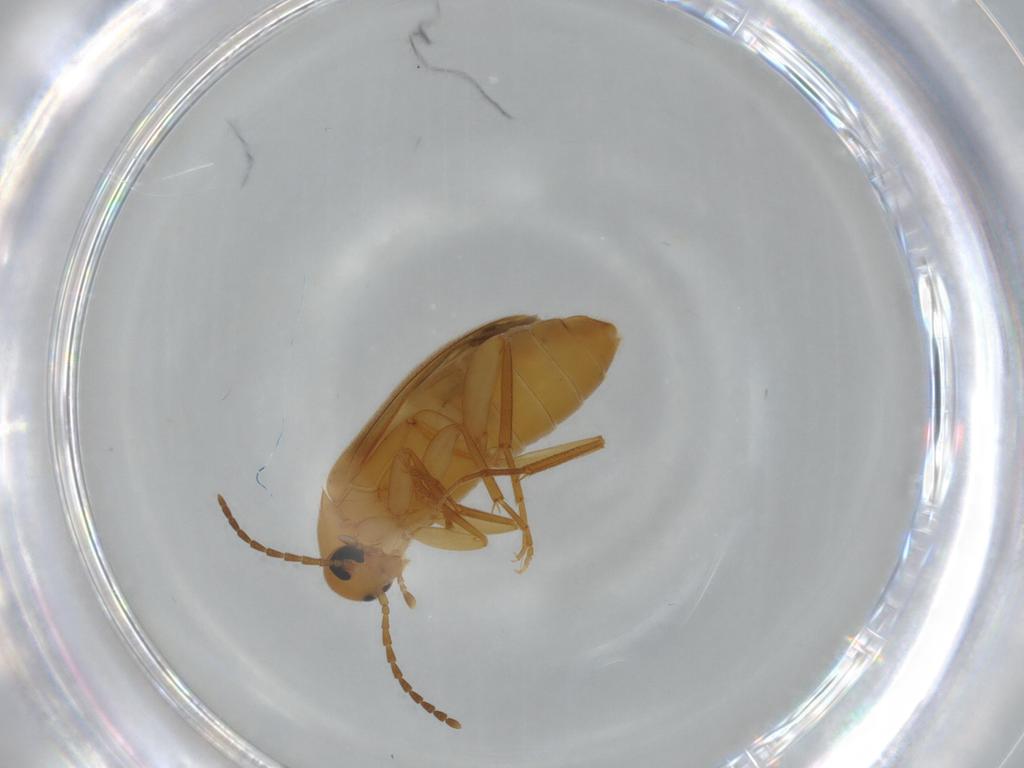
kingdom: Animalia
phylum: Arthropoda
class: Insecta
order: Coleoptera
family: Scraptiidae
